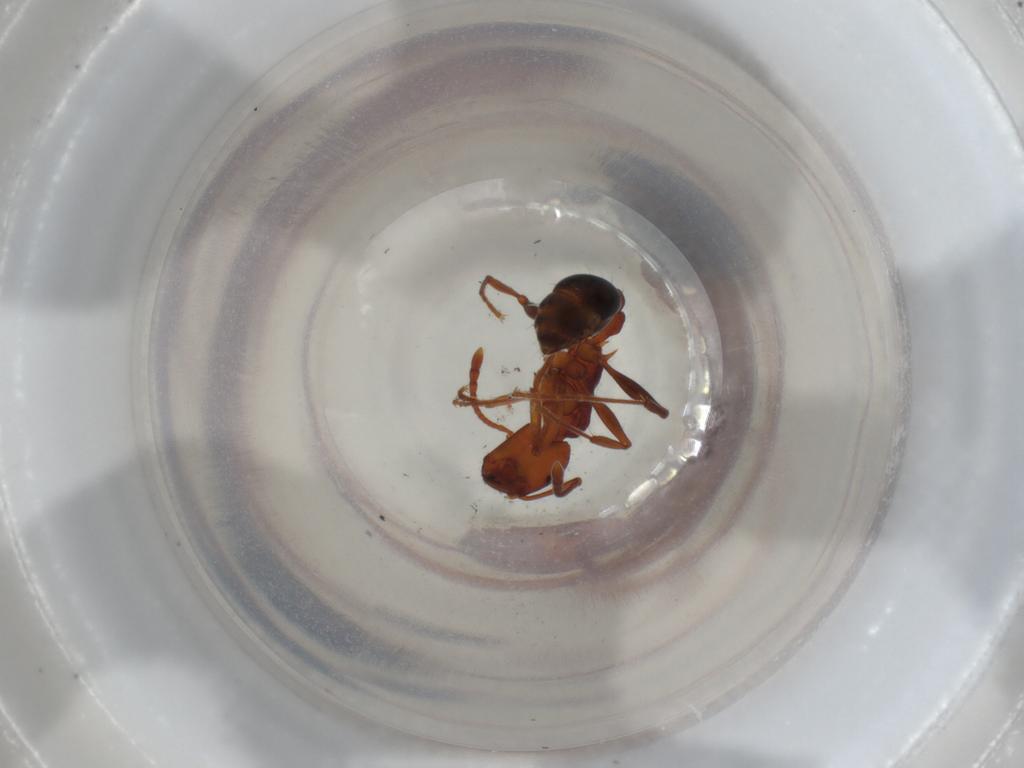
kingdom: Animalia
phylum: Arthropoda
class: Insecta
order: Hymenoptera
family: Formicidae
